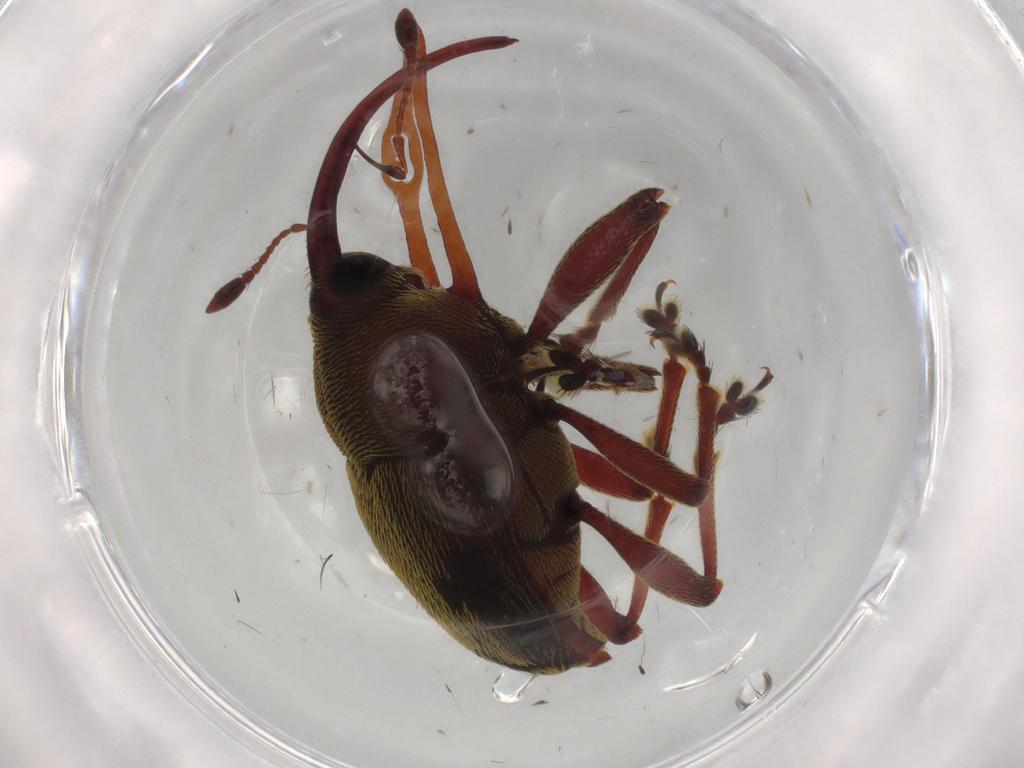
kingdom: Animalia
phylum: Arthropoda
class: Insecta
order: Coleoptera
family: Curculionidae
